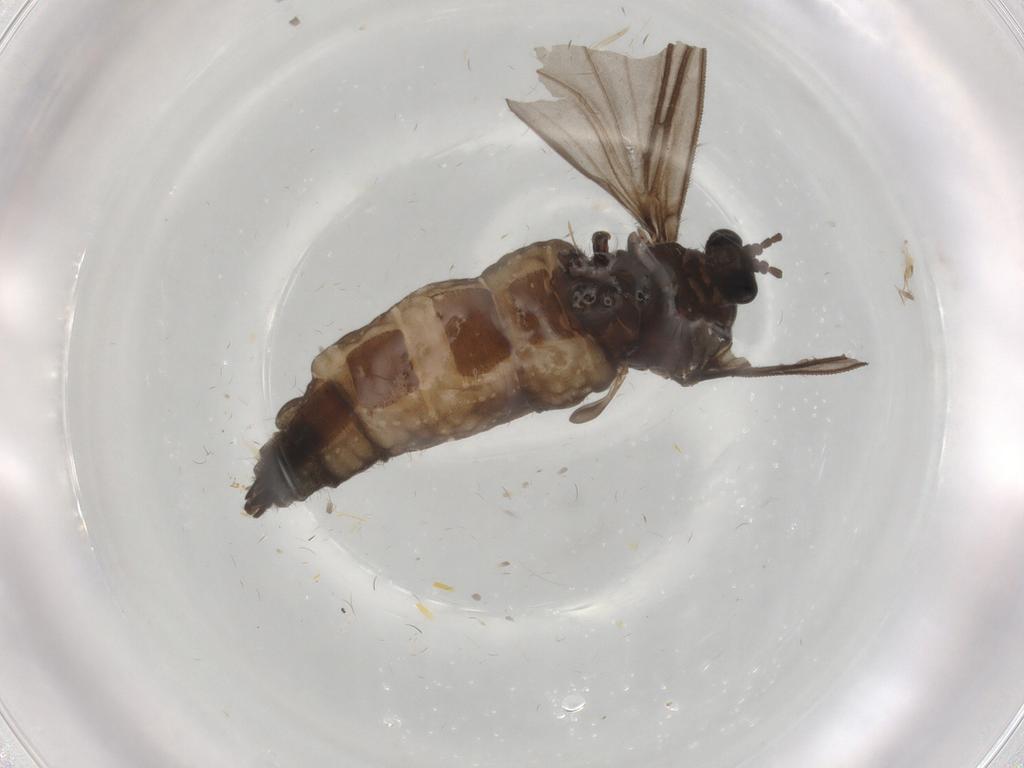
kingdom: Animalia
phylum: Arthropoda
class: Insecta
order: Diptera
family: Sciaridae
